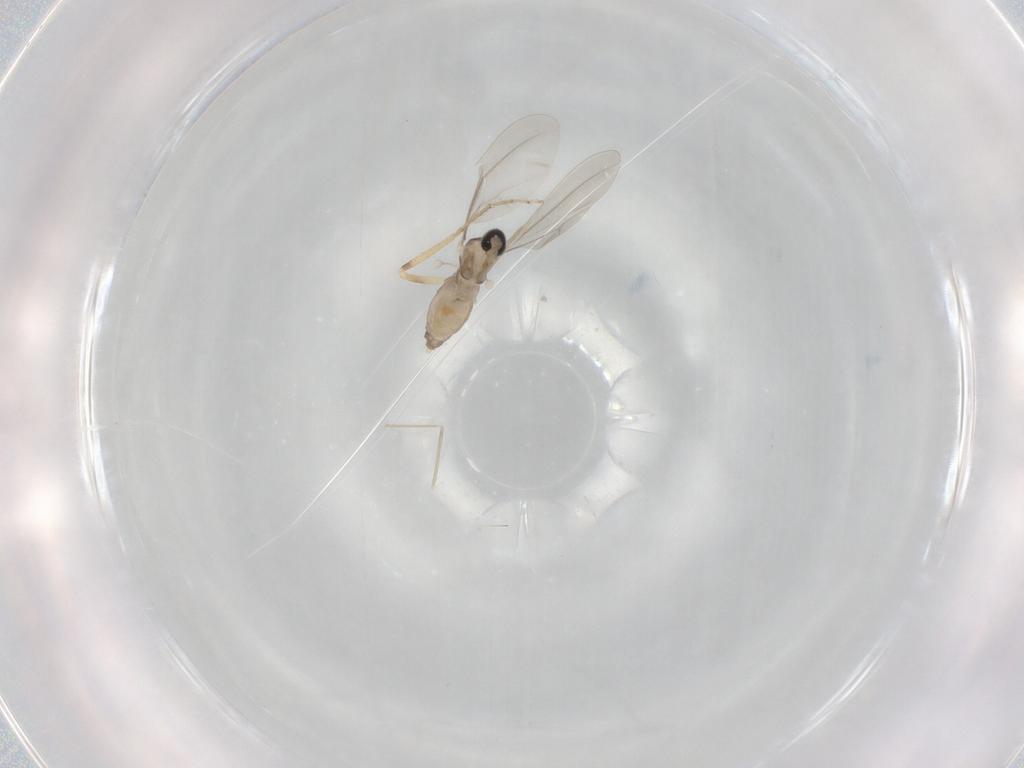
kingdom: Animalia
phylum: Arthropoda
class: Insecta
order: Diptera
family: Cecidomyiidae
